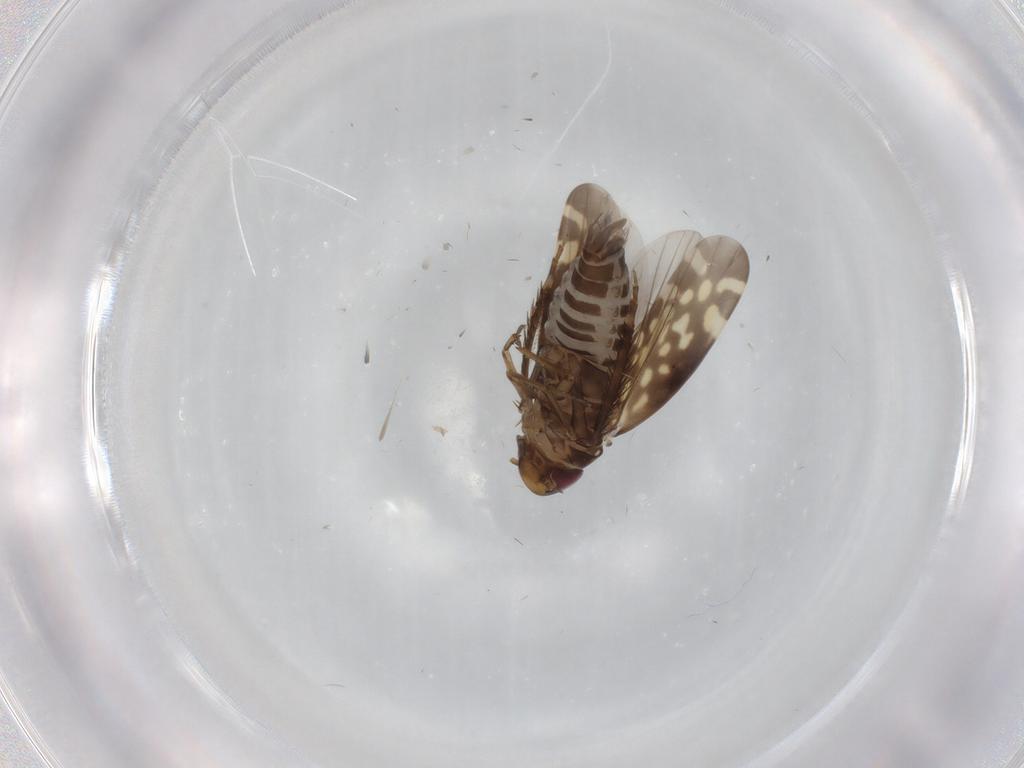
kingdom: Animalia
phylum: Arthropoda
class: Insecta
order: Hemiptera
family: Cicadellidae
